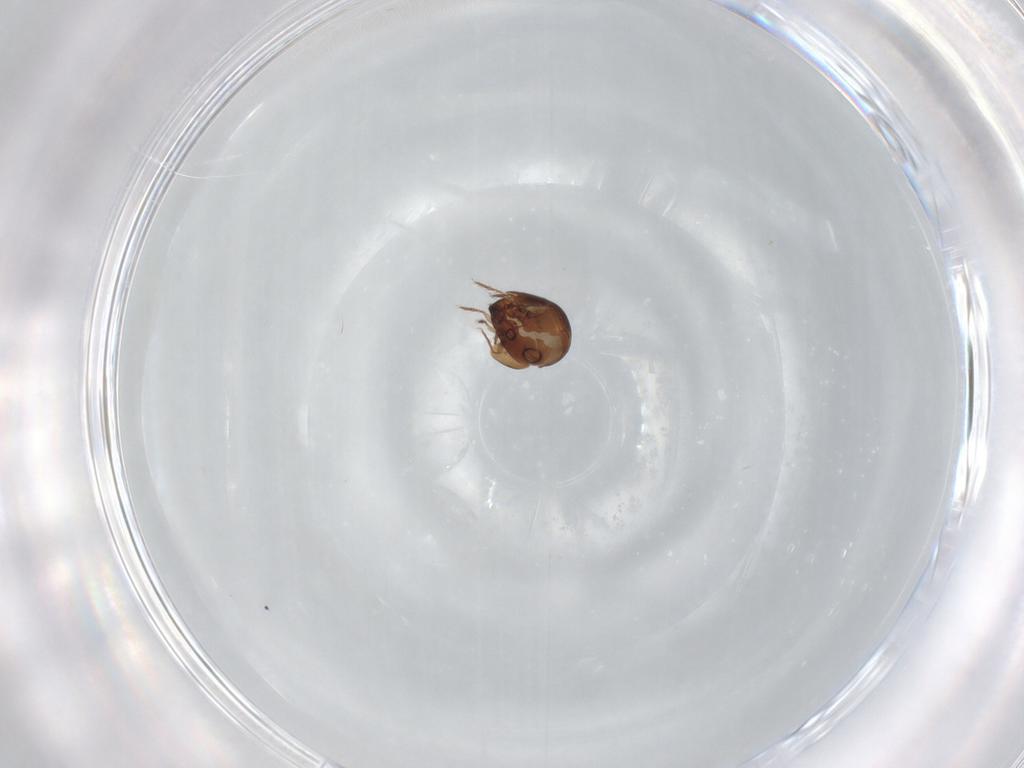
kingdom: Animalia
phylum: Arthropoda
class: Arachnida
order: Sarcoptiformes
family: Ceratozetidae
